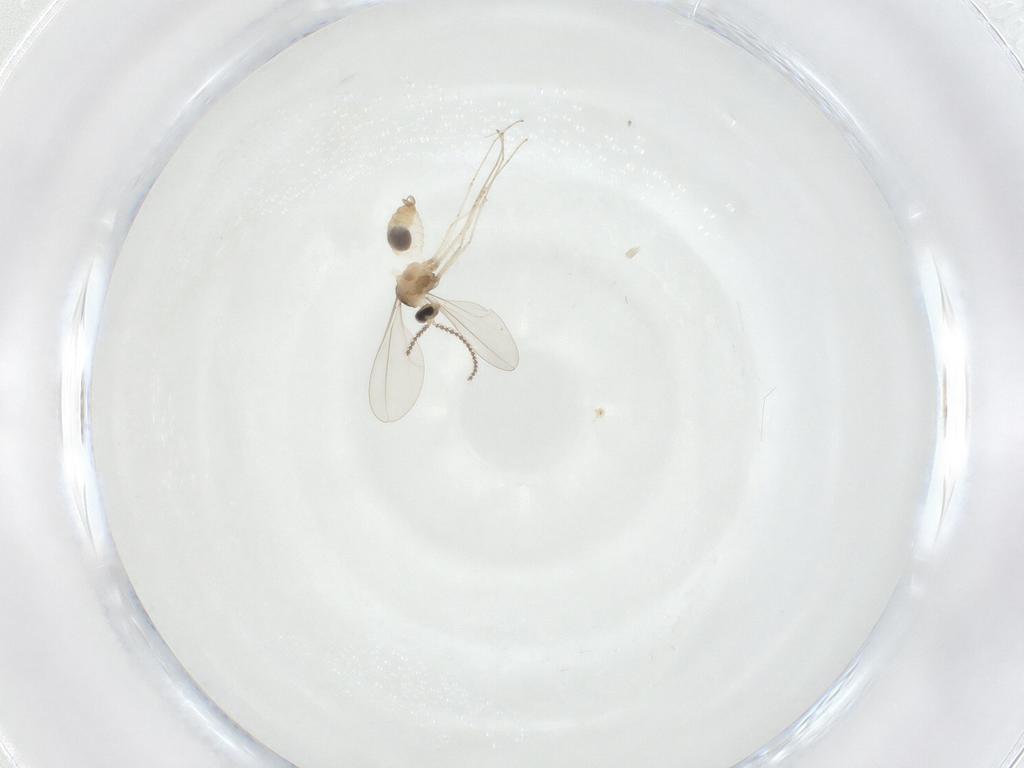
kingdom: Animalia
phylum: Arthropoda
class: Insecta
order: Diptera
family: Cecidomyiidae
